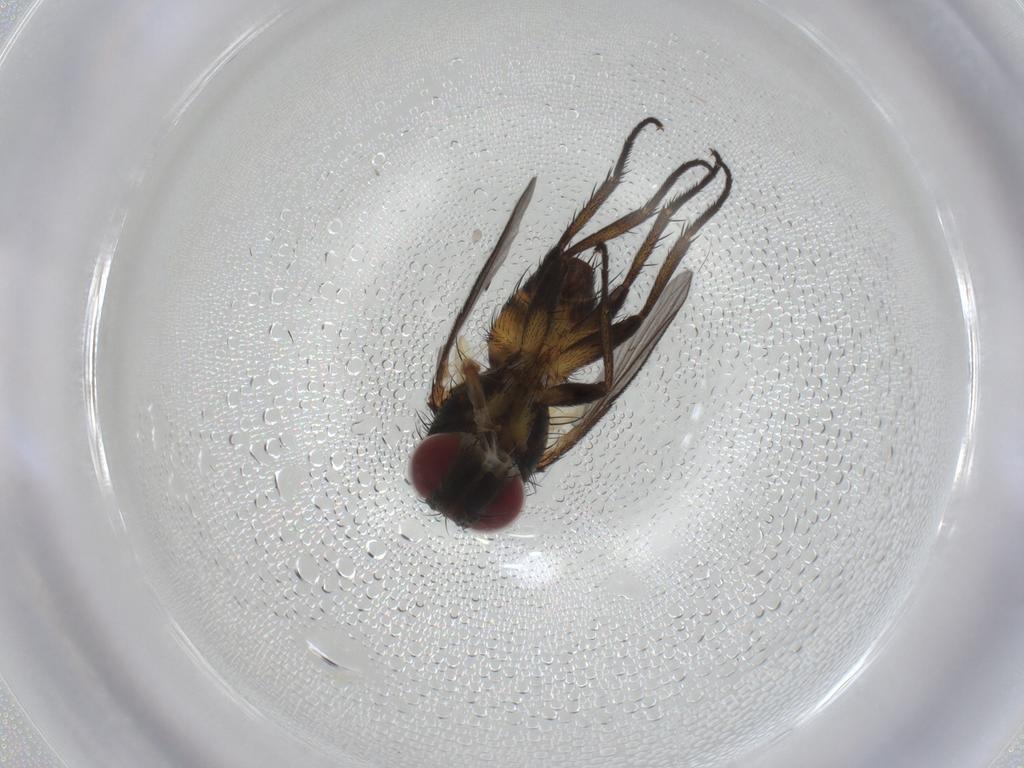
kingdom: Animalia
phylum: Arthropoda
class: Insecta
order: Diptera
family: Tachinidae
